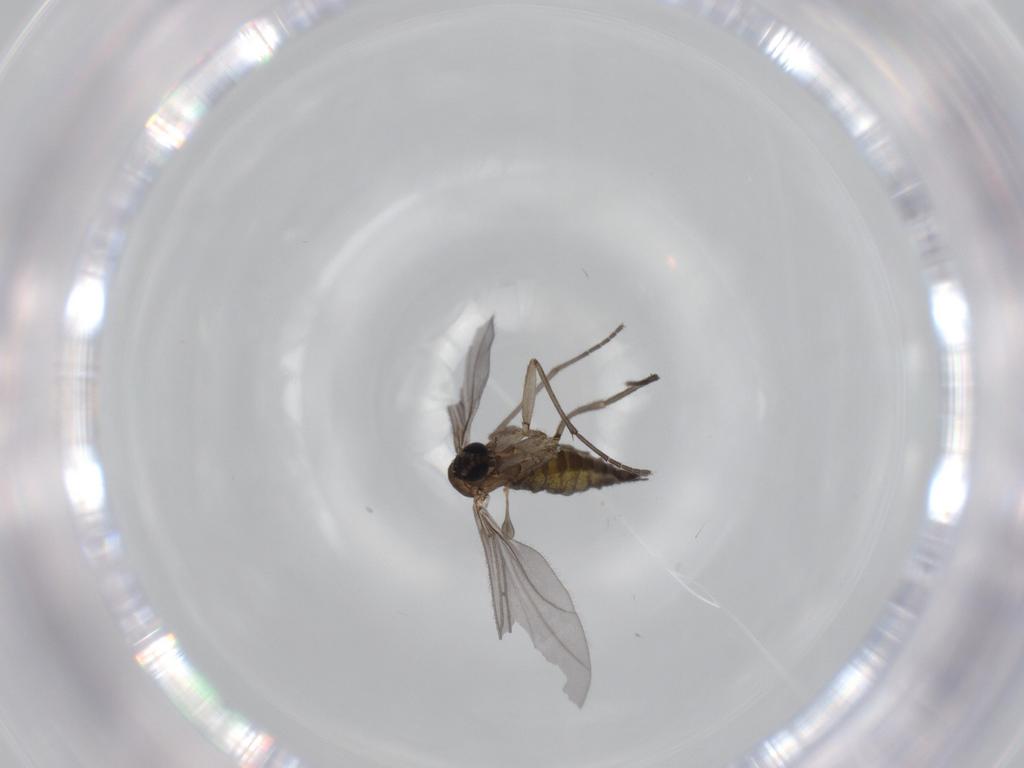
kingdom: Animalia
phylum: Arthropoda
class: Insecta
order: Diptera
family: Sciaridae
